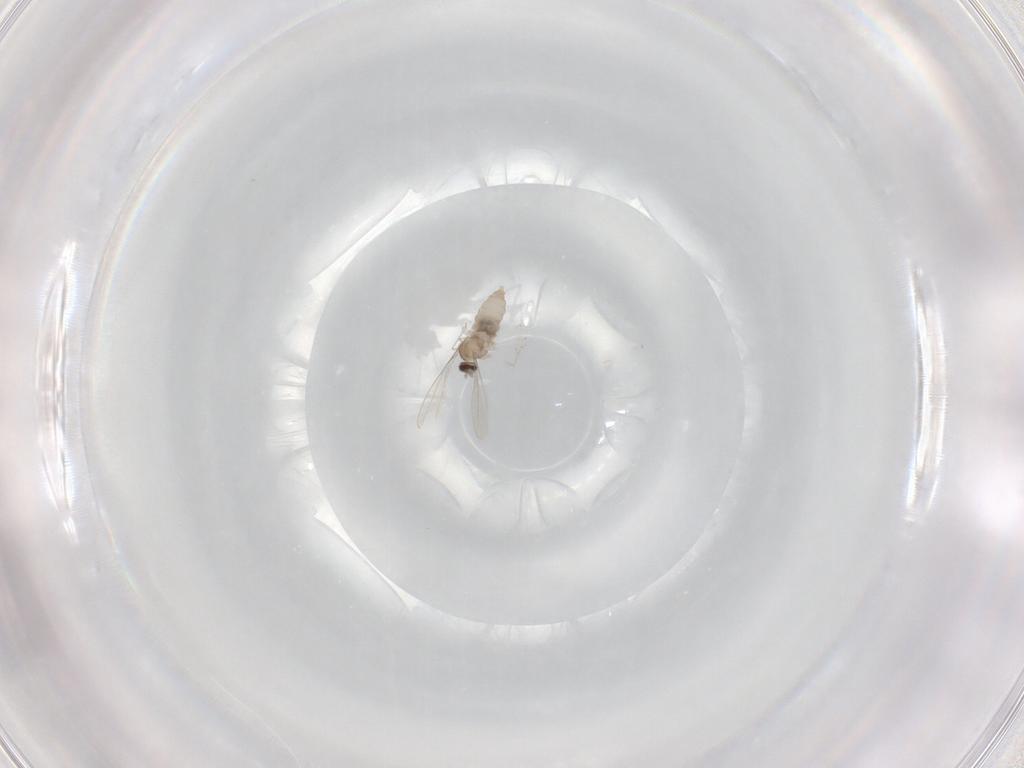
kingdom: Animalia
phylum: Arthropoda
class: Insecta
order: Diptera
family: Cecidomyiidae
